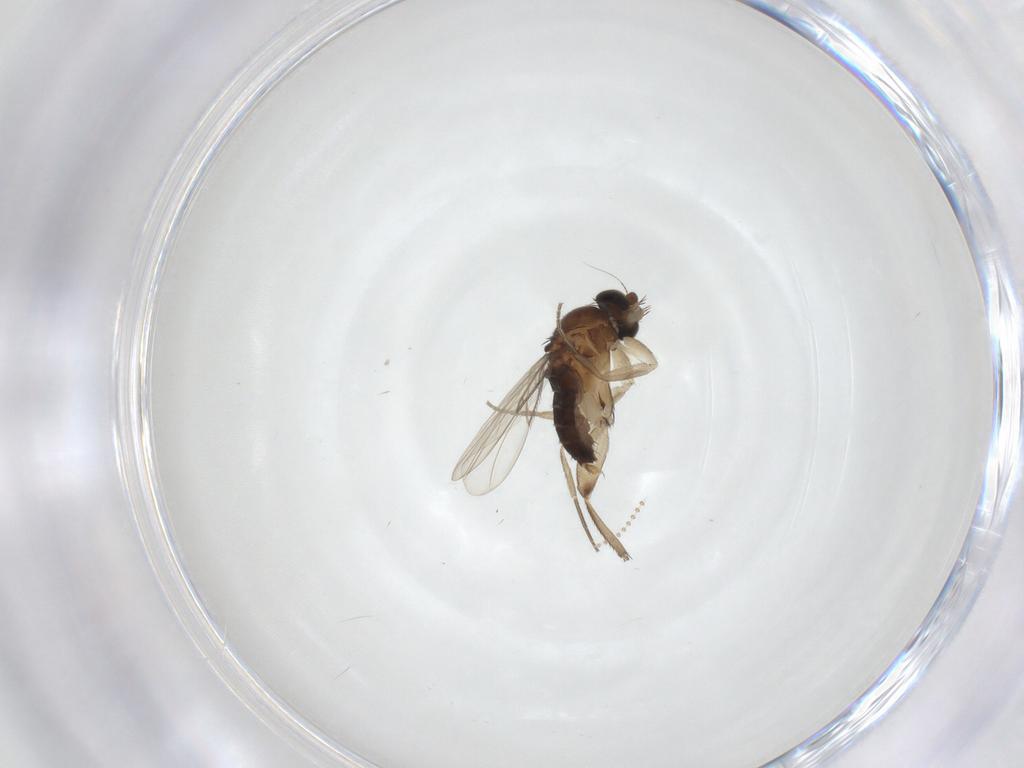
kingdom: Animalia
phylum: Arthropoda
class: Insecta
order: Diptera
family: Phoridae
